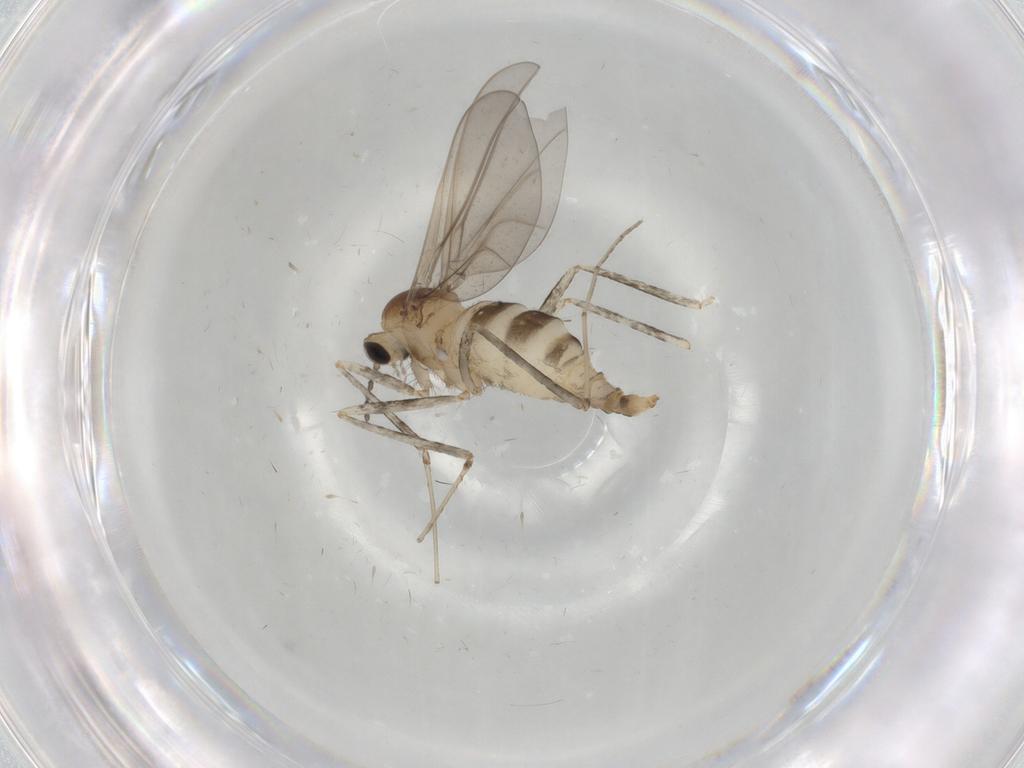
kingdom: Animalia
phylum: Arthropoda
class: Insecta
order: Diptera
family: Cecidomyiidae
